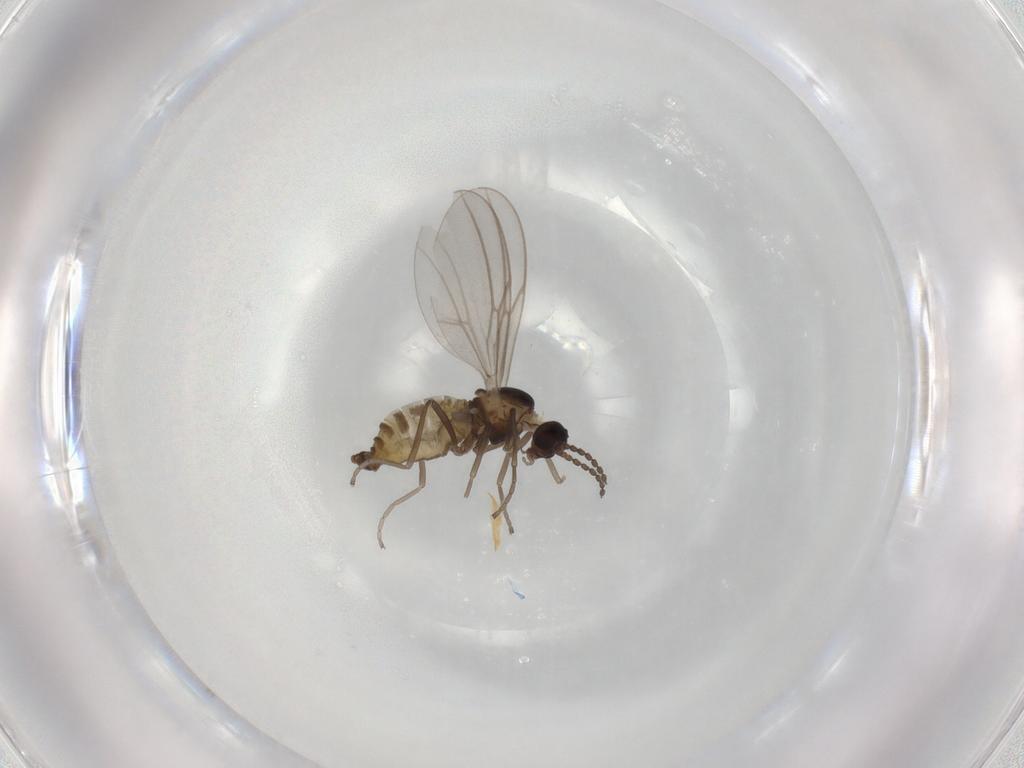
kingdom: Animalia
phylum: Arthropoda
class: Insecta
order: Diptera
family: Cecidomyiidae
